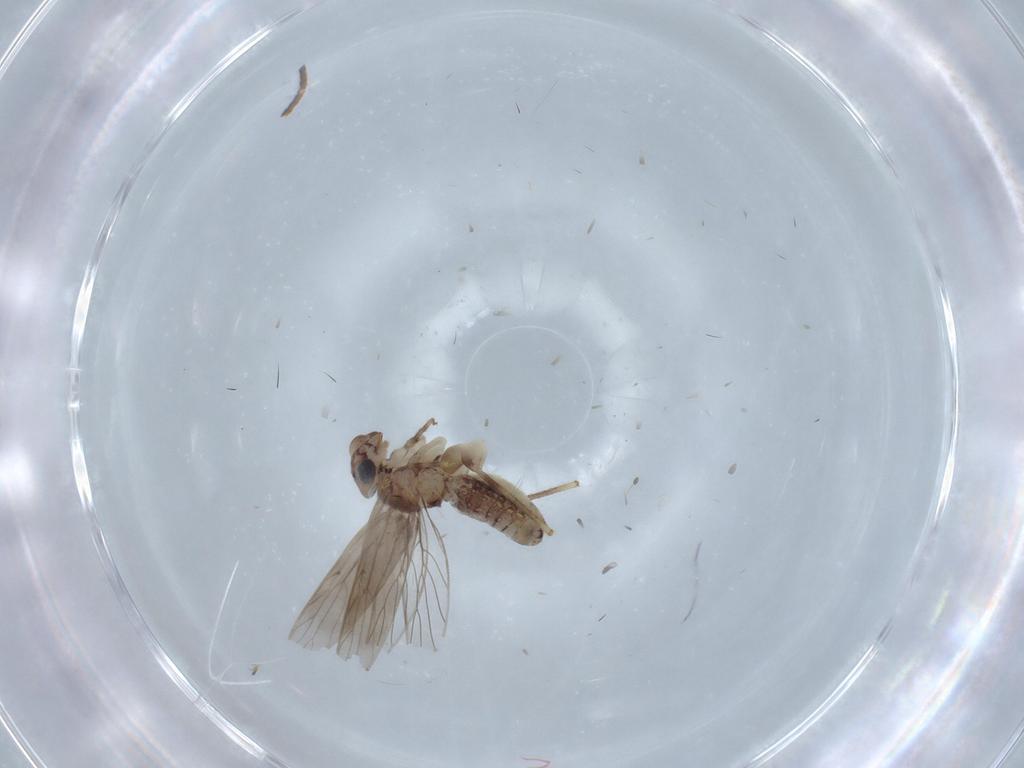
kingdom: Animalia
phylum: Arthropoda
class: Insecta
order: Psocodea
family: Lepidopsocidae
